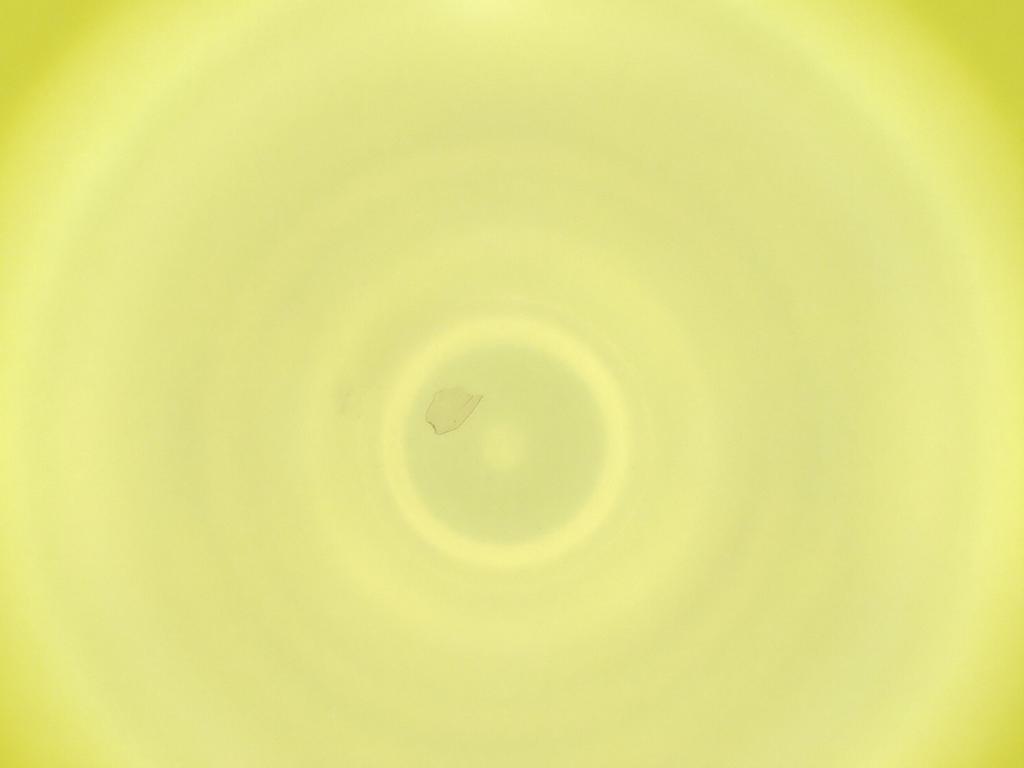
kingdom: Animalia
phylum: Arthropoda
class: Insecta
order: Diptera
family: Cecidomyiidae
